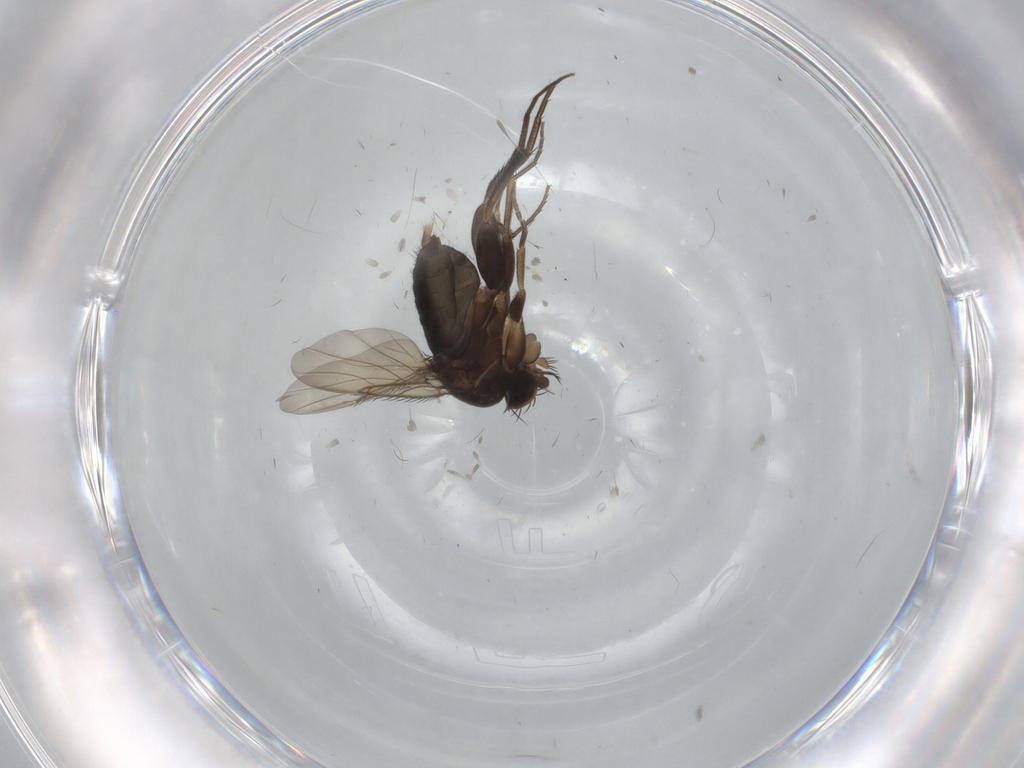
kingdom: Animalia
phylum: Arthropoda
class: Insecta
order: Diptera
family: Phoridae
